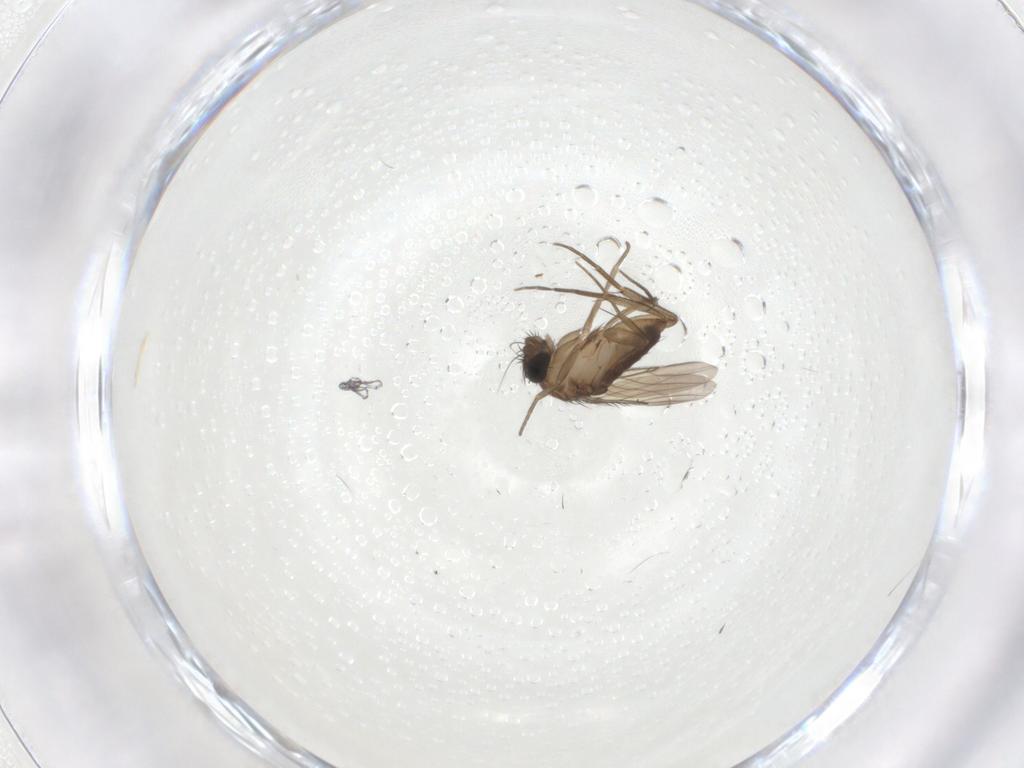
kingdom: Animalia
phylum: Arthropoda
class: Insecta
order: Diptera
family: Phoridae
